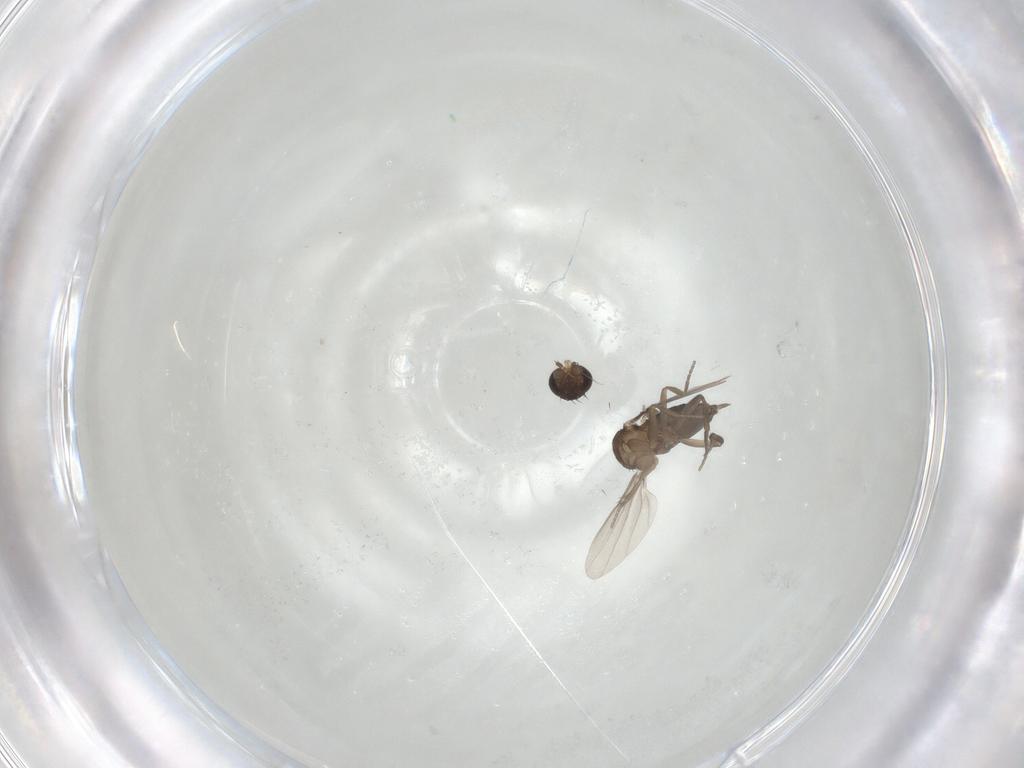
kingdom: Animalia
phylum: Arthropoda
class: Insecta
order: Diptera
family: Phoridae
